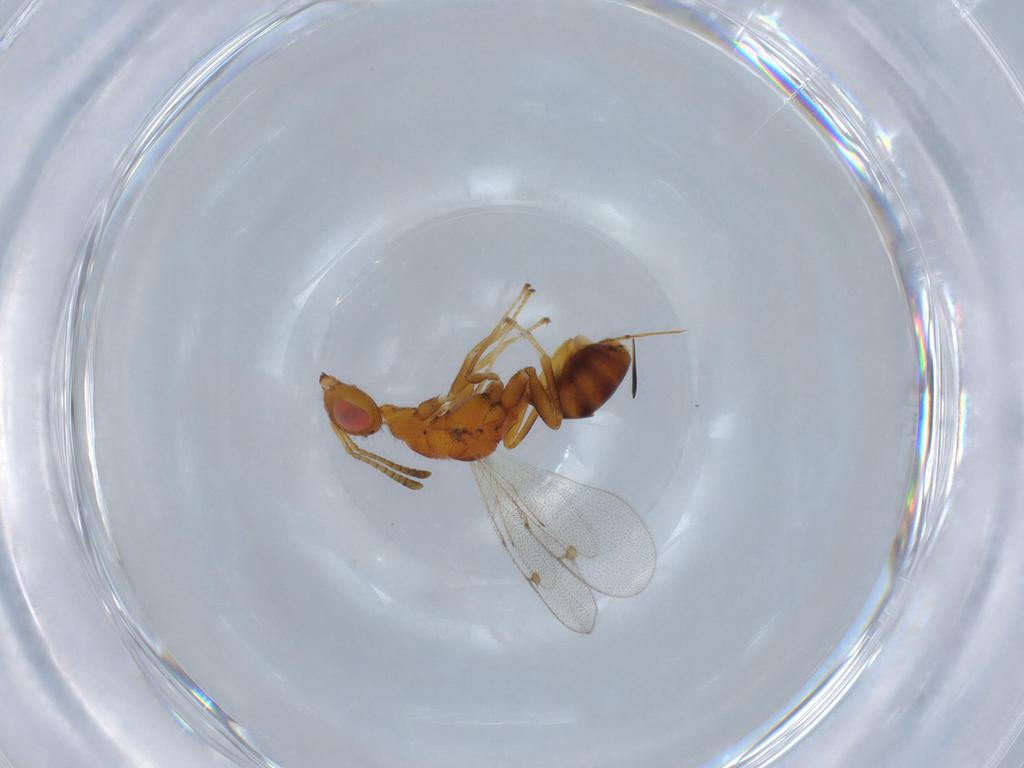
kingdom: Animalia
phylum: Arthropoda
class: Insecta
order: Hymenoptera
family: Megastigmidae
